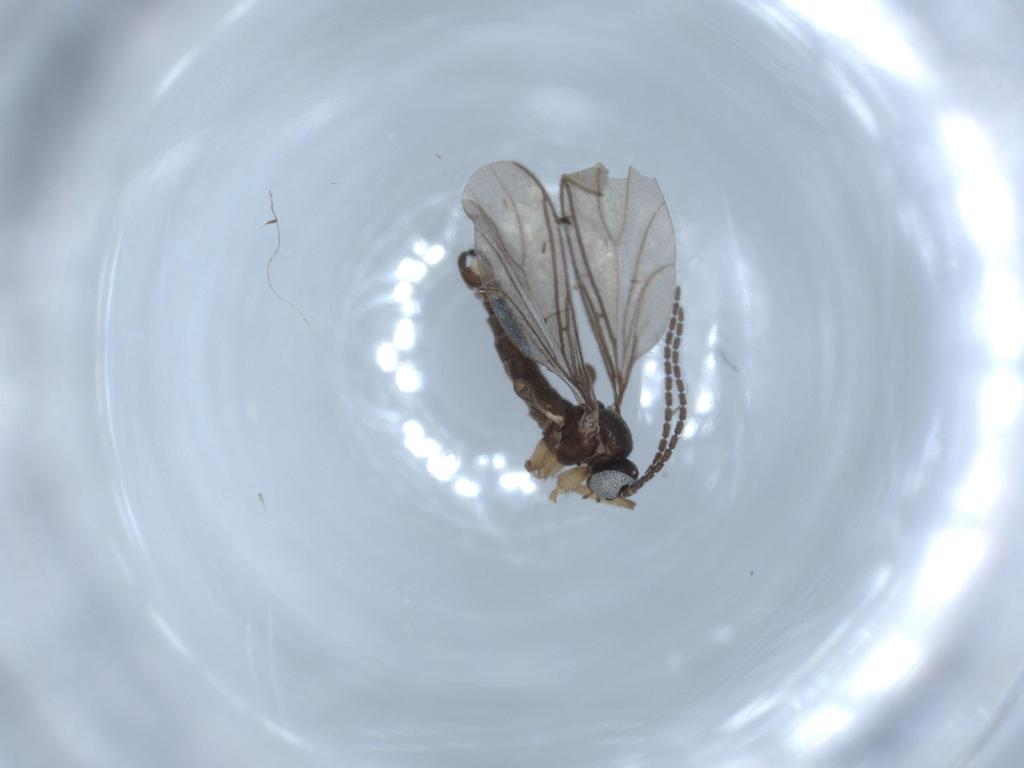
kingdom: Animalia
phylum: Arthropoda
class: Insecta
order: Diptera
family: Sciaridae
